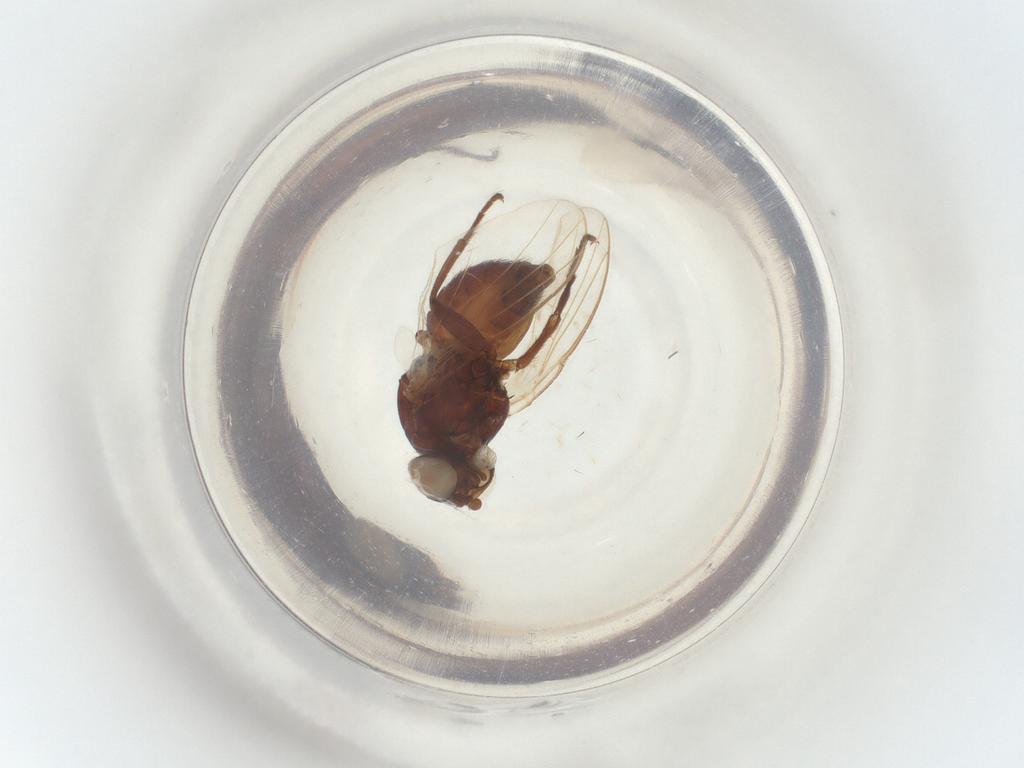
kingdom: Animalia
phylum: Arthropoda
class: Insecta
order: Diptera
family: Agromyzidae
